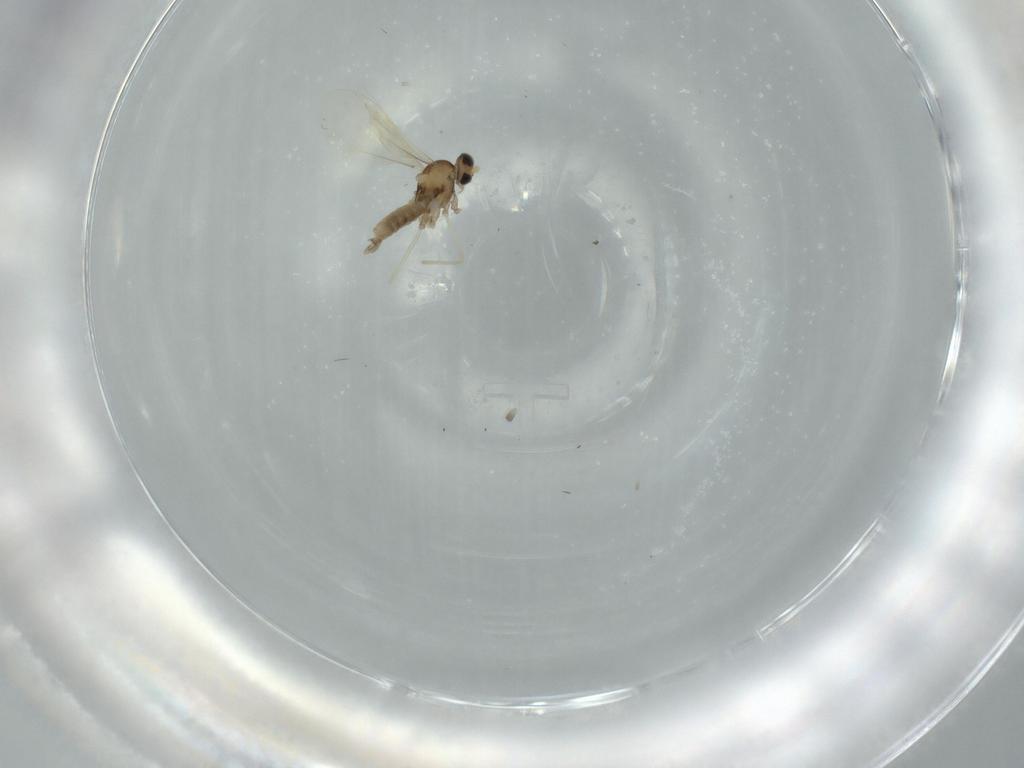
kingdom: Animalia
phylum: Arthropoda
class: Insecta
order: Diptera
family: Cecidomyiidae
